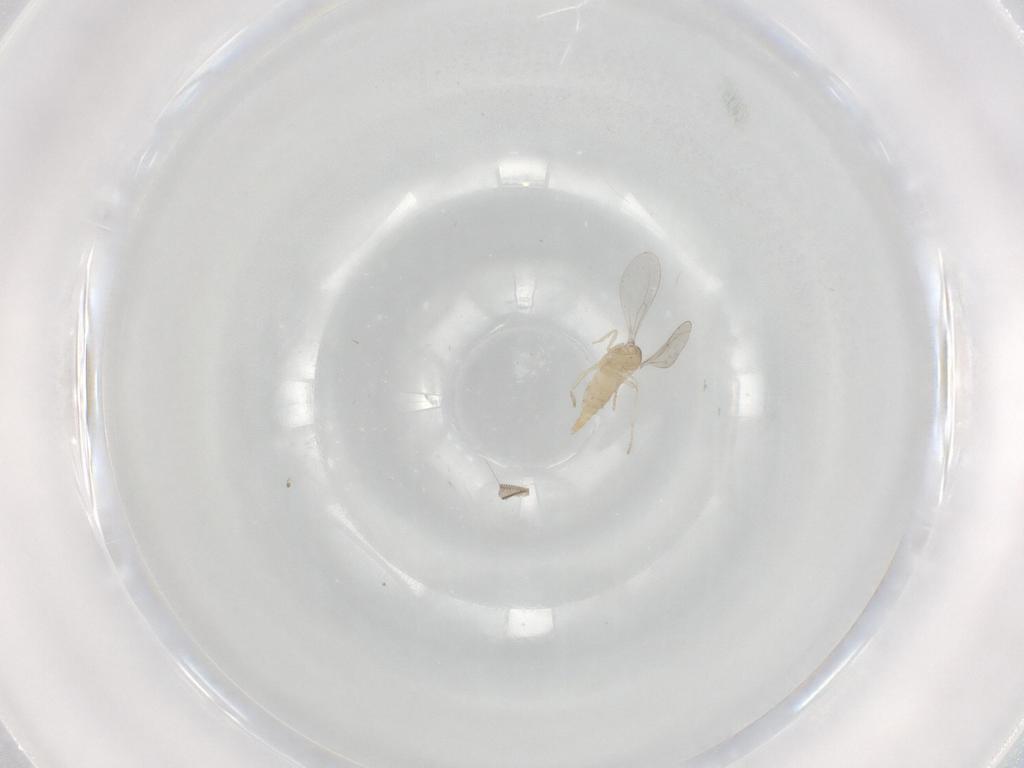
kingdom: Animalia
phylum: Arthropoda
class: Insecta
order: Diptera
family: Cecidomyiidae
